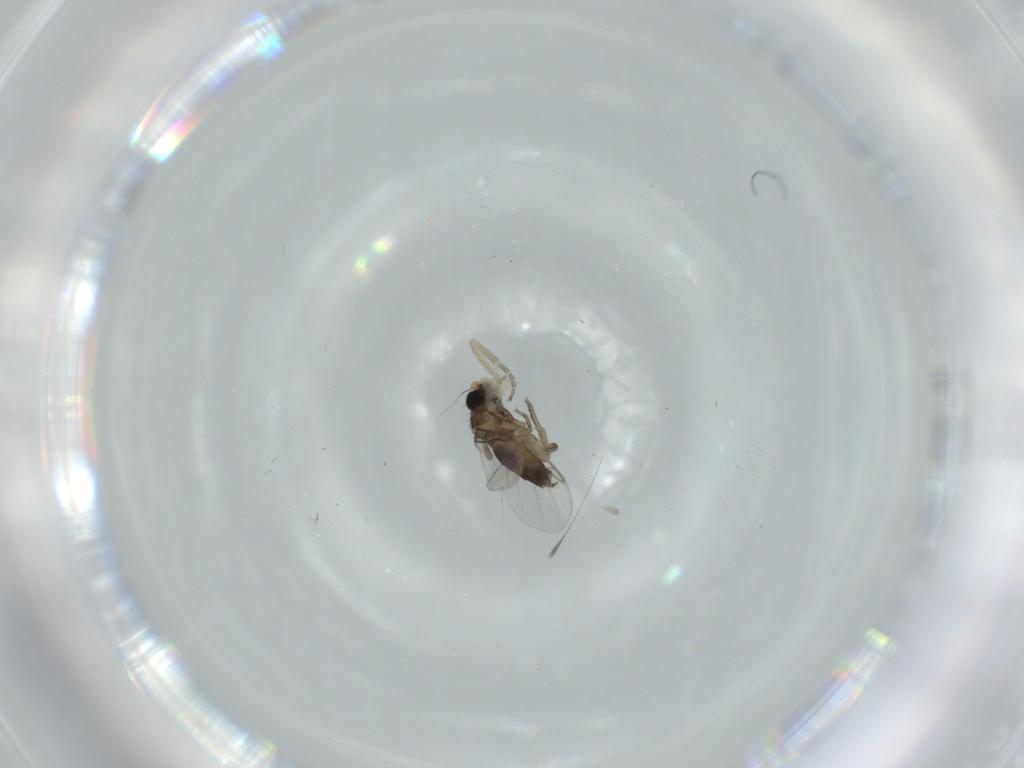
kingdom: Animalia
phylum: Arthropoda
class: Insecta
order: Diptera
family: Phoridae
